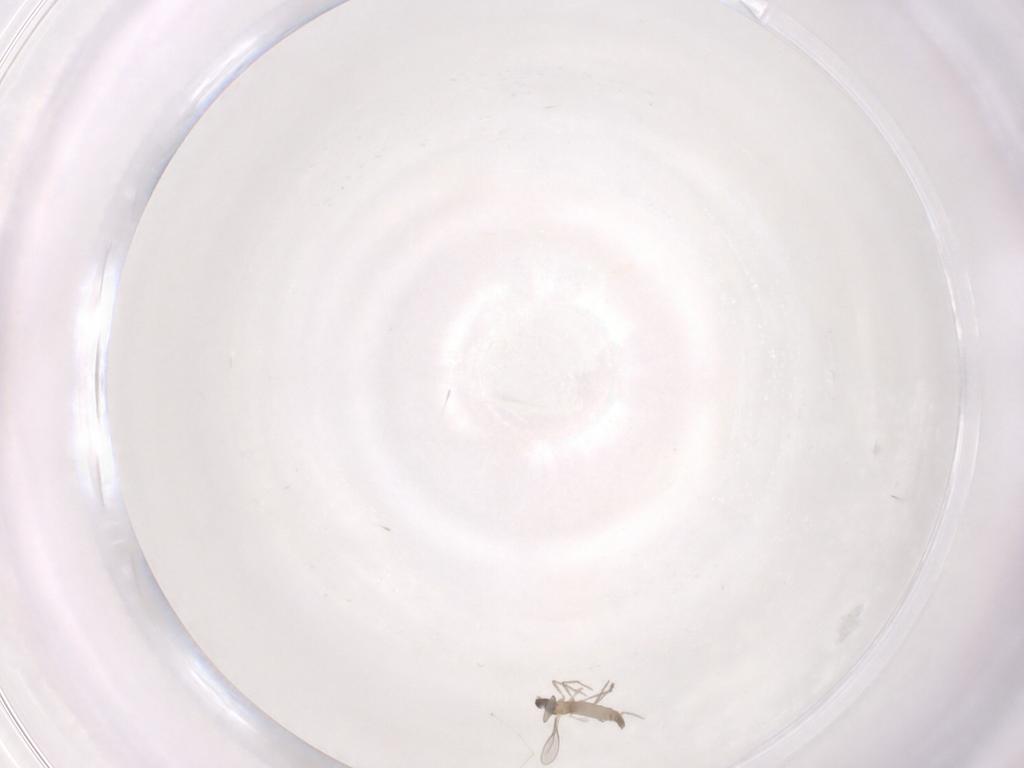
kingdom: Animalia
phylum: Arthropoda
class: Insecta
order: Diptera
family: Cecidomyiidae
